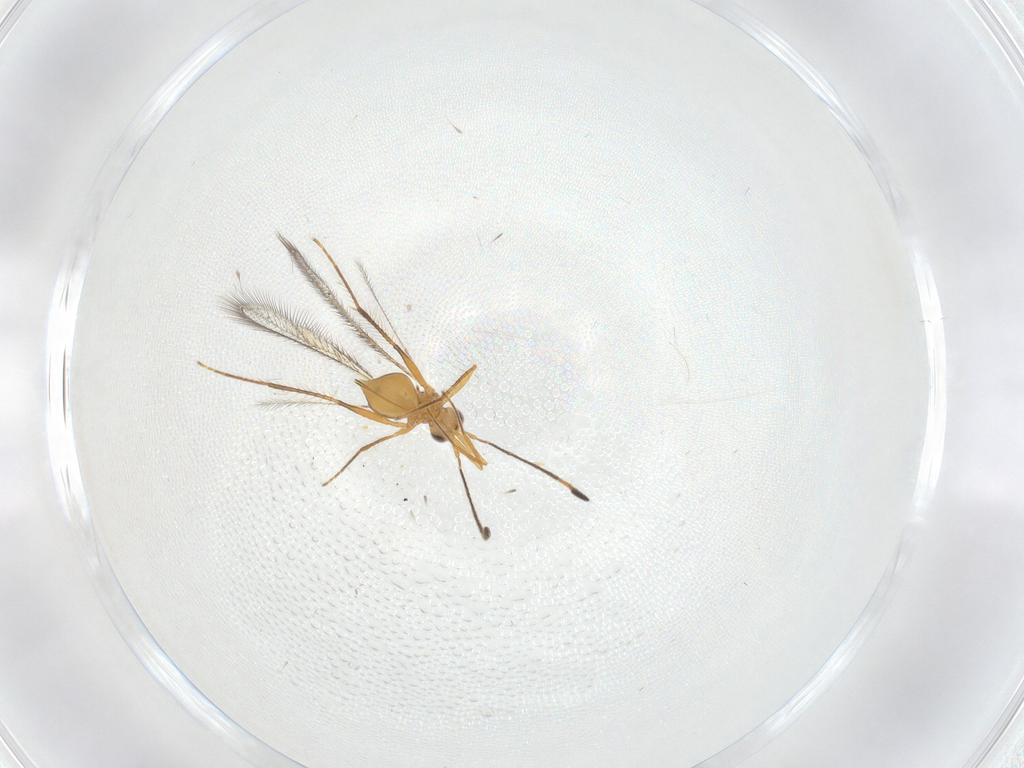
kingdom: Animalia
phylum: Arthropoda
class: Insecta
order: Hymenoptera
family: Mymaridae
